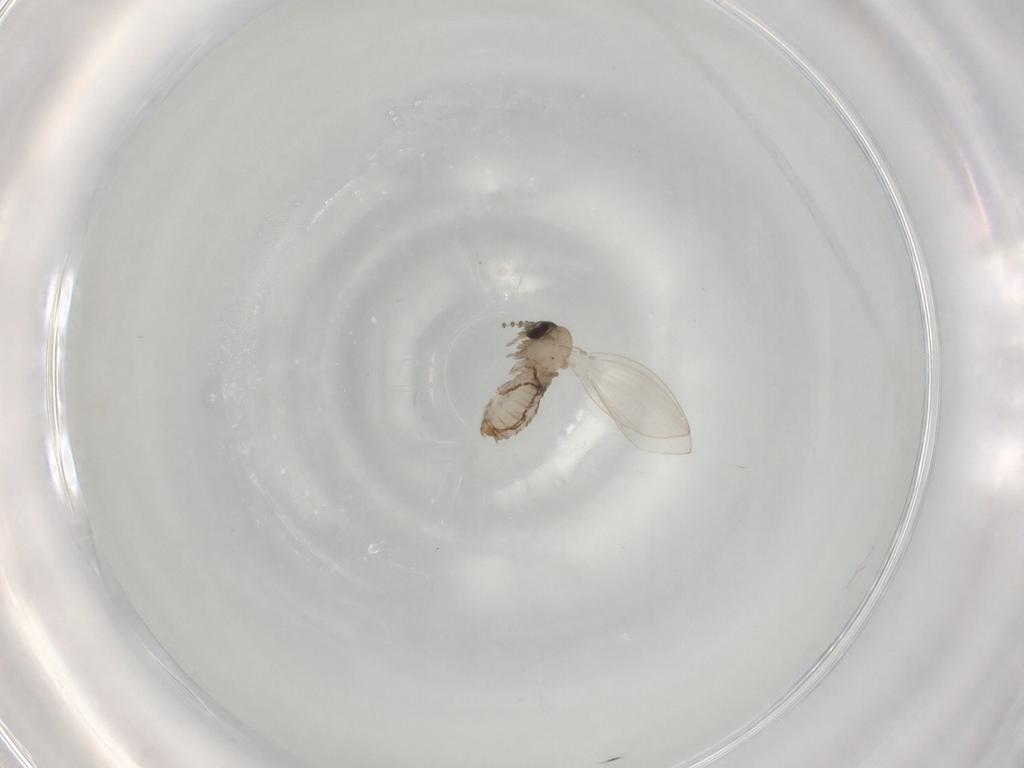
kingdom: Animalia
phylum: Arthropoda
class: Insecta
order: Diptera
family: Psychodidae
